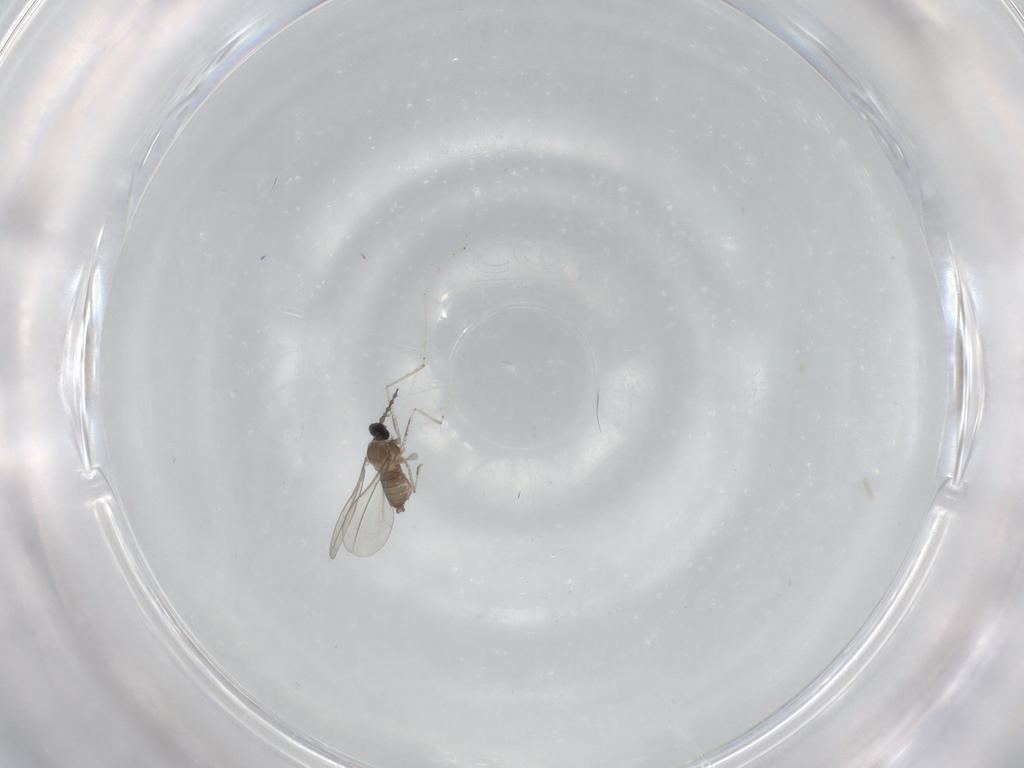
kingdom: Animalia
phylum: Arthropoda
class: Insecta
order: Diptera
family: Cecidomyiidae
